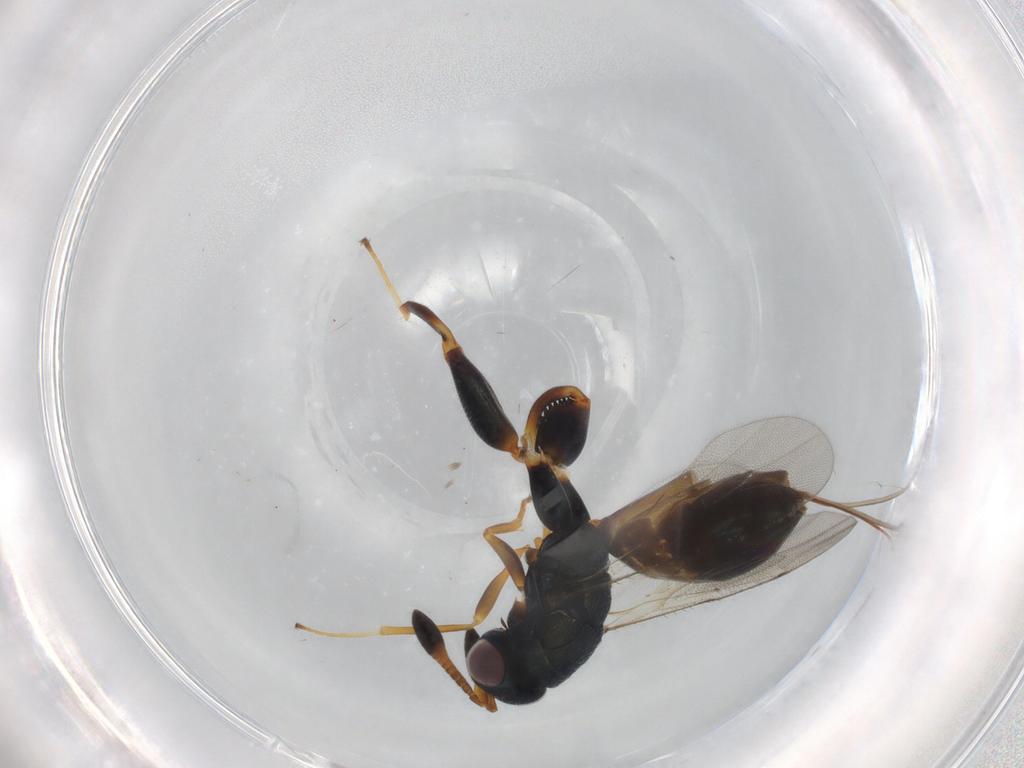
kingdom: Animalia
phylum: Arthropoda
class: Insecta
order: Hymenoptera
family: Torymidae
